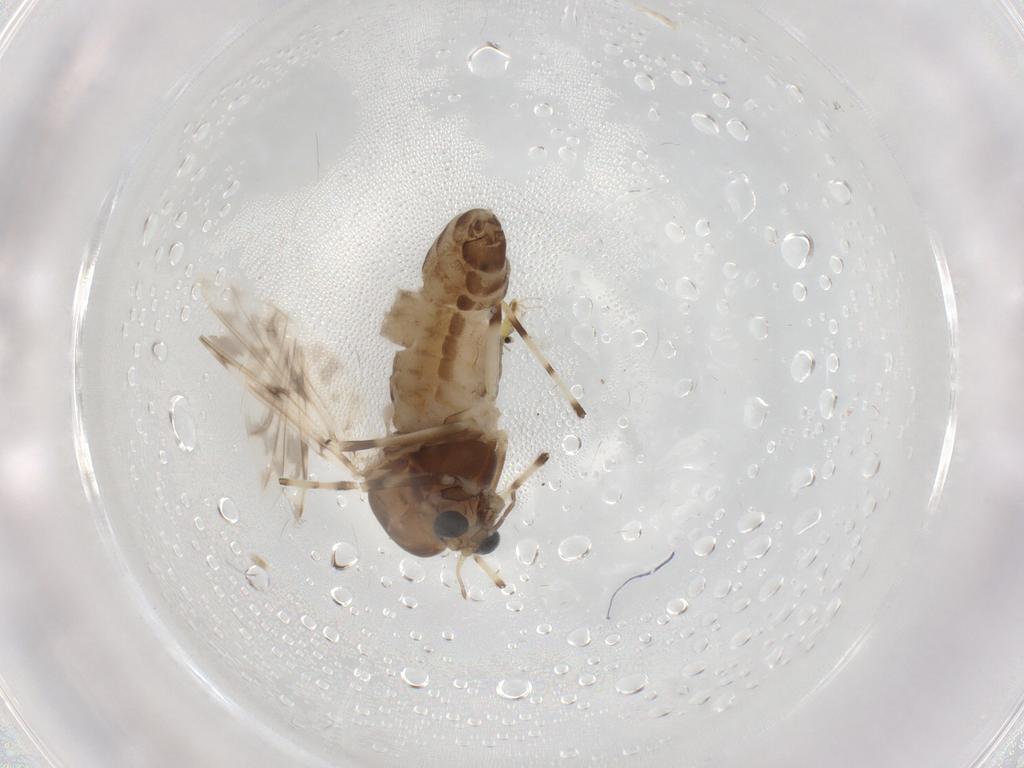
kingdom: Animalia
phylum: Arthropoda
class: Insecta
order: Diptera
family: Chironomidae
